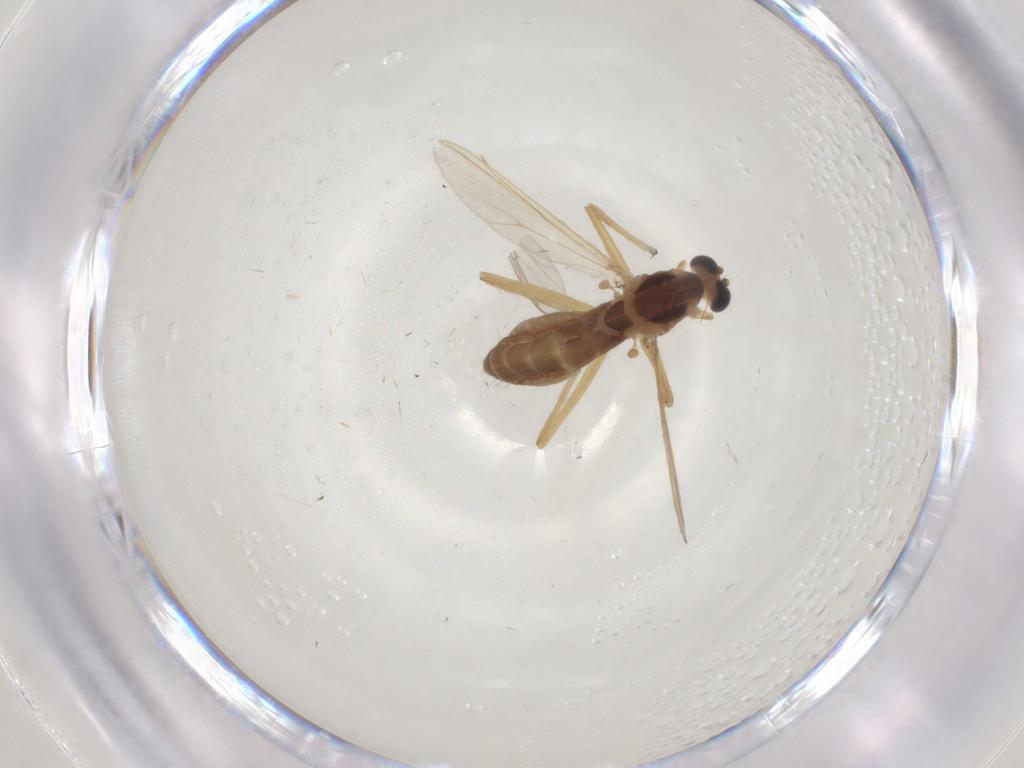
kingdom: Animalia
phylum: Arthropoda
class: Insecta
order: Diptera
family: Chironomidae
